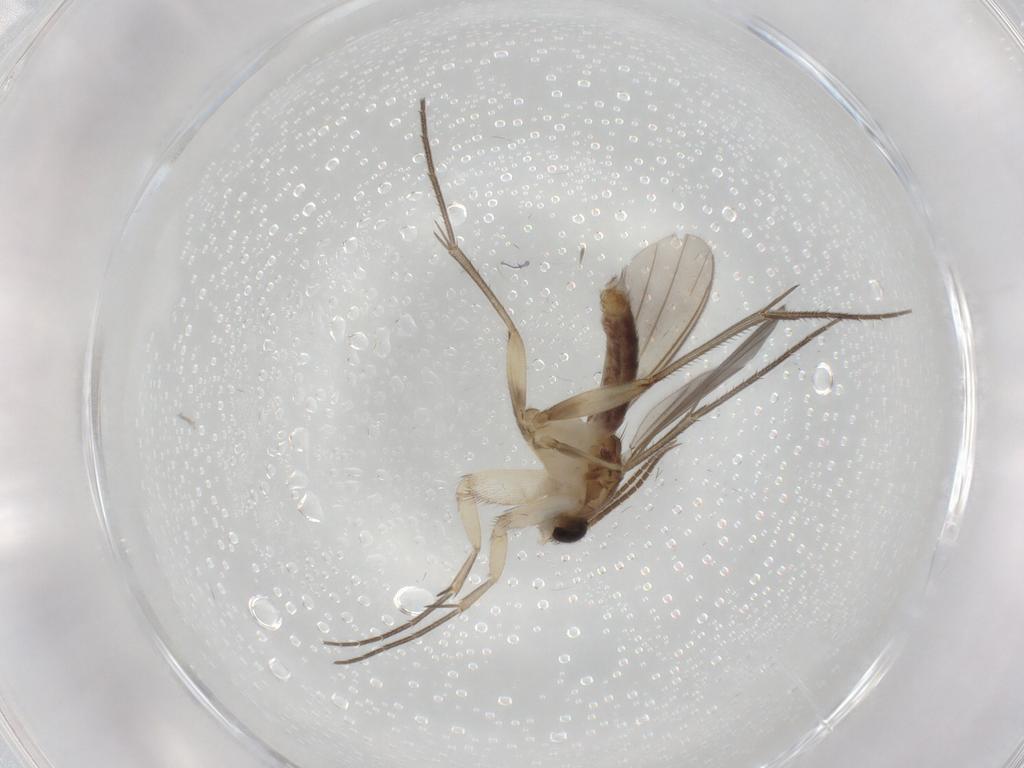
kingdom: Animalia
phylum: Arthropoda
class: Insecta
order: Diptera
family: Mycetophilidae
